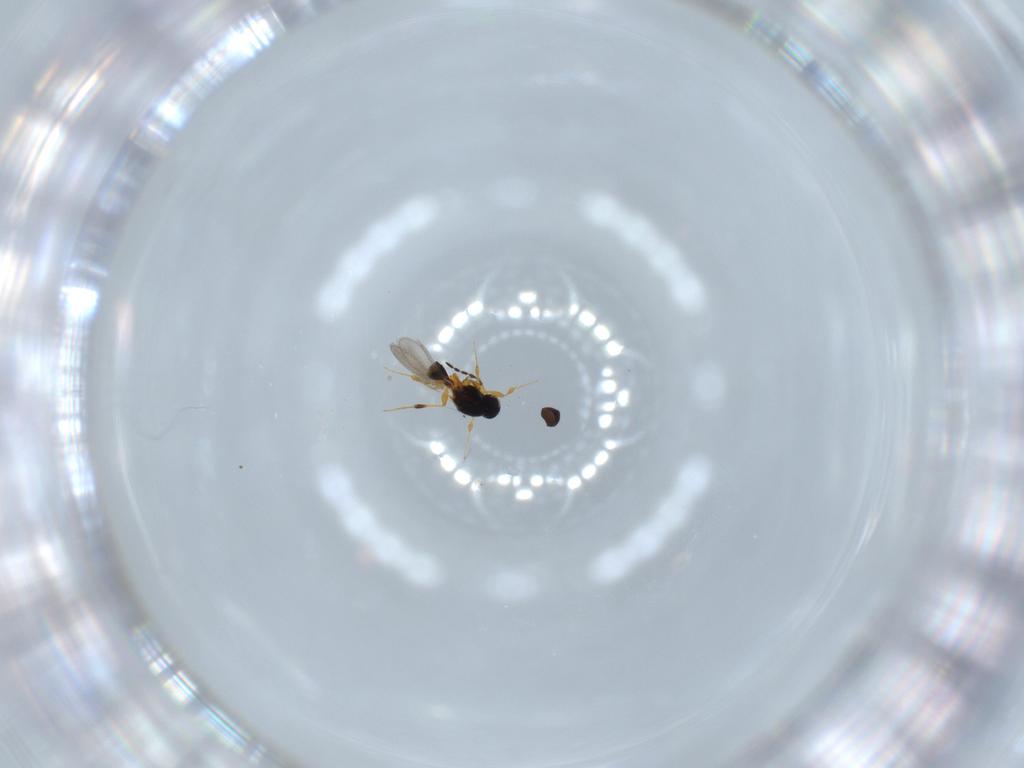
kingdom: Animalia
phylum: Arthropoda
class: Insecta
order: Hymenoptera
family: Platygastridae
